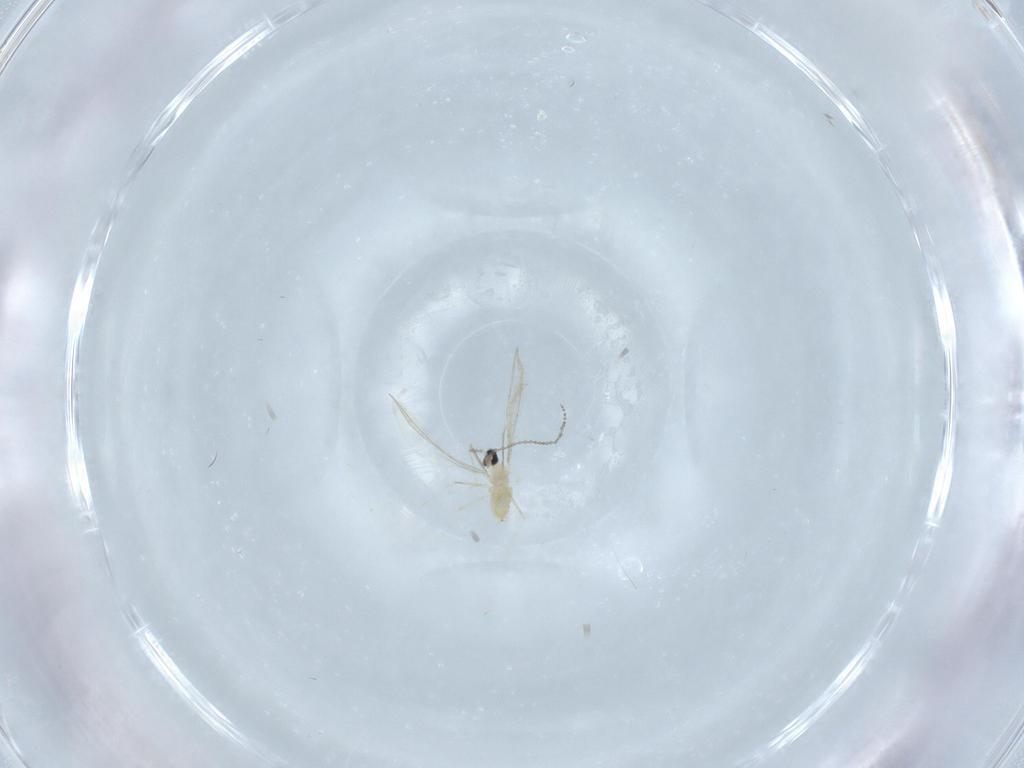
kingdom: Animalia
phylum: Arthropoda
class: Insecta
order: Diptera
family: Cecidomyiidae
